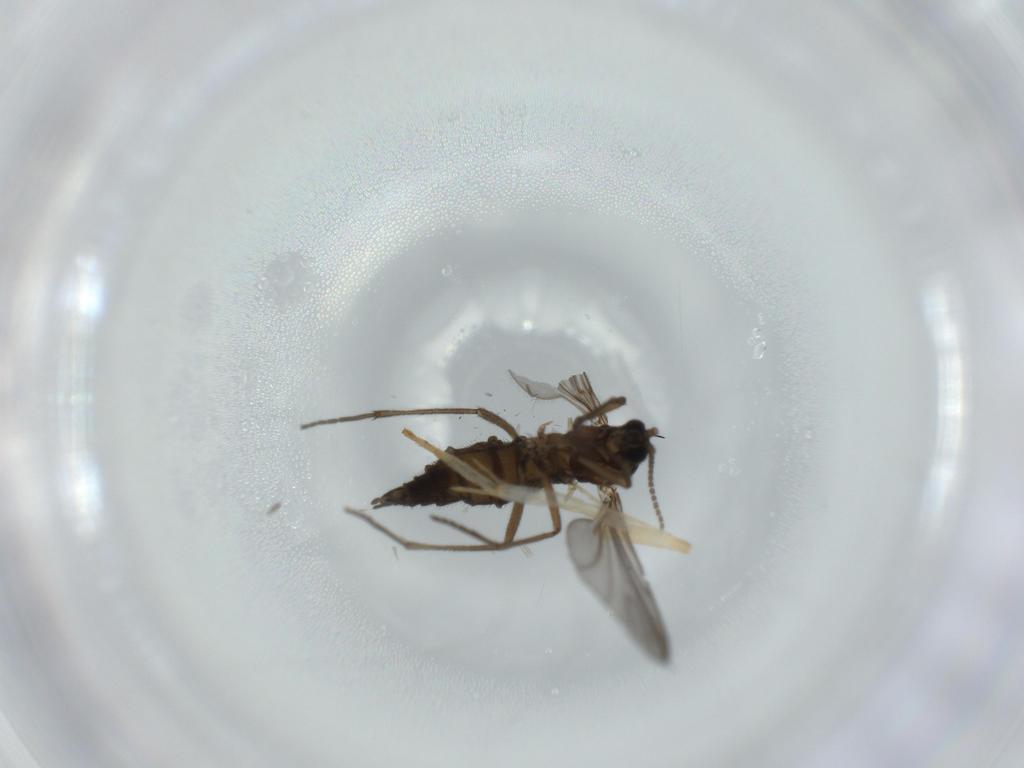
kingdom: Animalia
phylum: Arthropoda
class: Insecta
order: Diptera
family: Sciaridae
